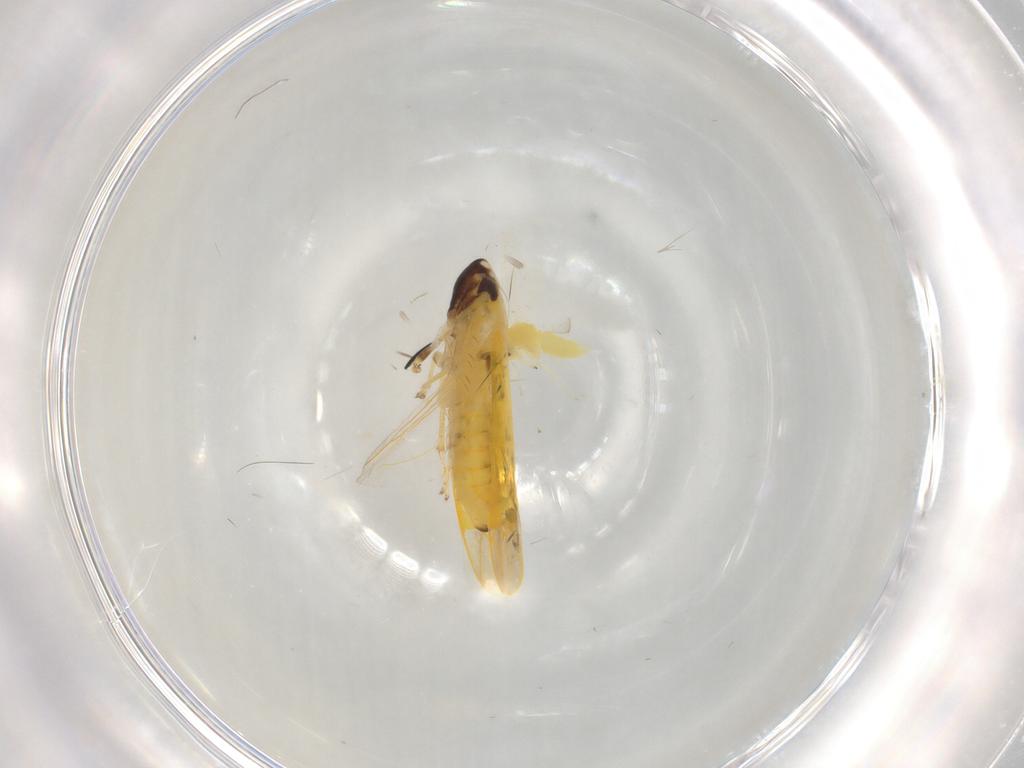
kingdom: Animalia
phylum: Arthropoda
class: Insecta
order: Hemiptera
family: Cicadellidae
